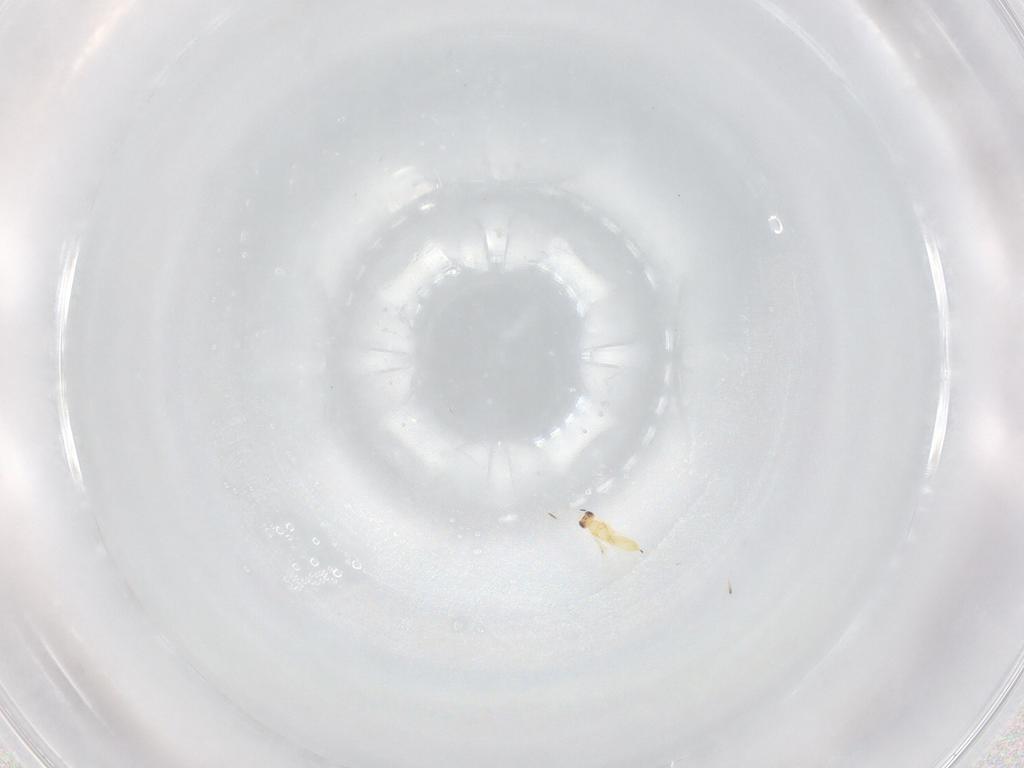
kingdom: Animalia
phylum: Arthropoda
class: Insecta
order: Hymenoptera
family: Mymaridae
